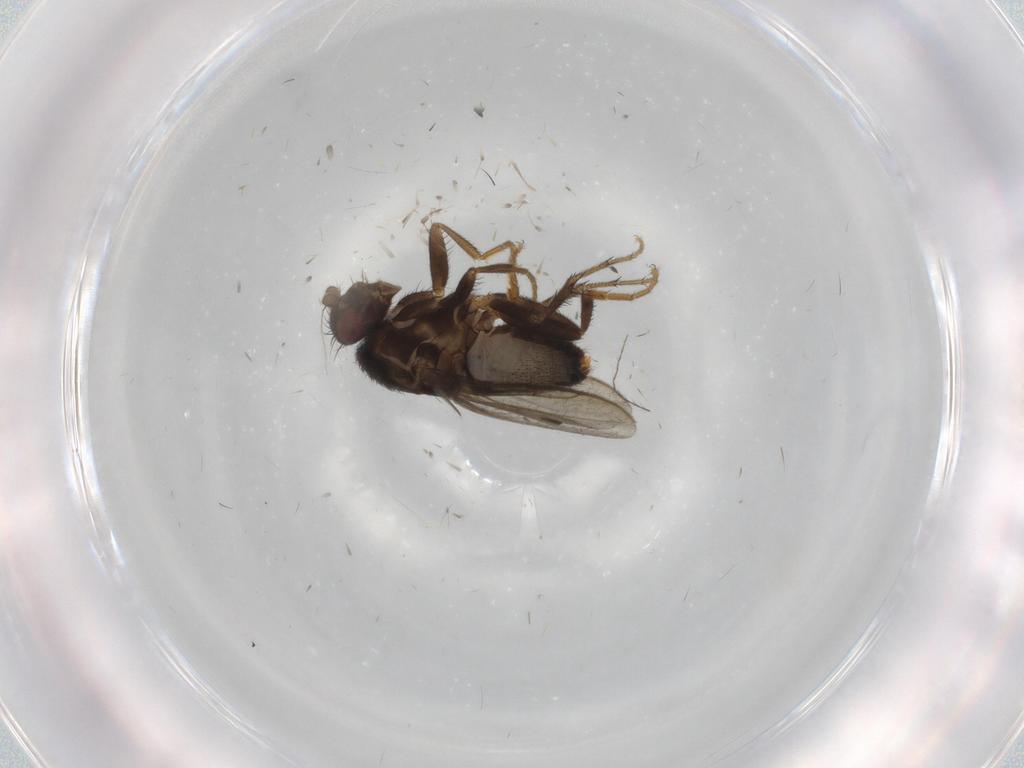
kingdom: Animalia
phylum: Arthropoda
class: Insecta
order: Diptera
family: Sphaeroceridae
